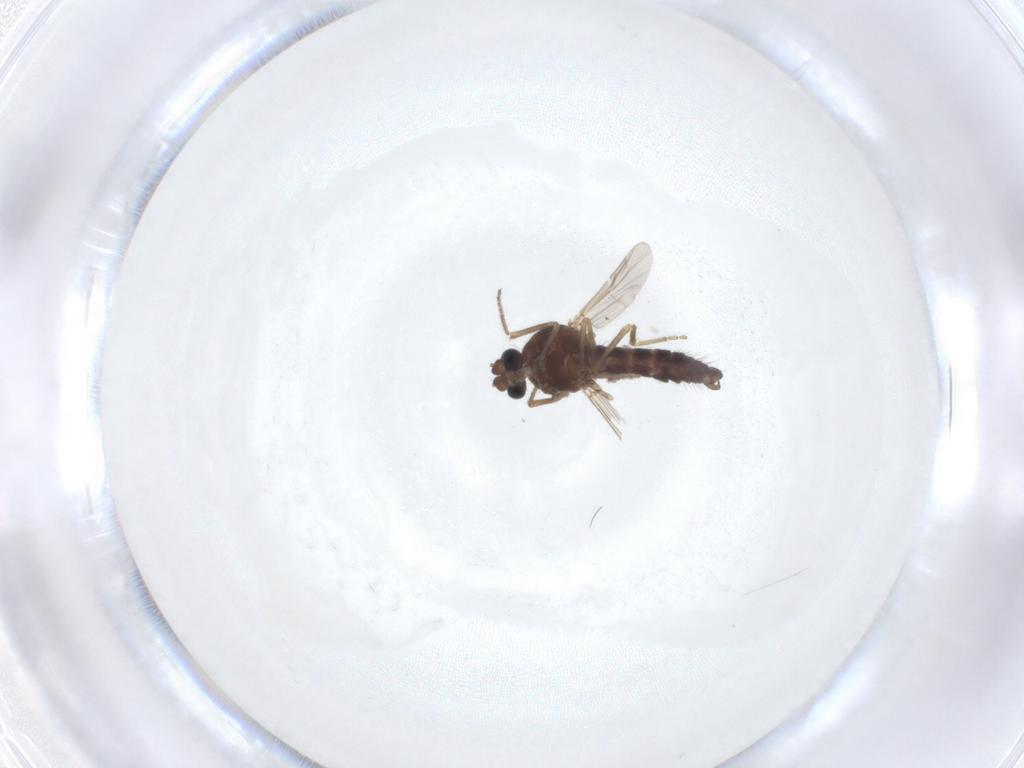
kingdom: Animalia
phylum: Arthropoda
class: Insecta
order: Diptera
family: Ceratopogonidae
